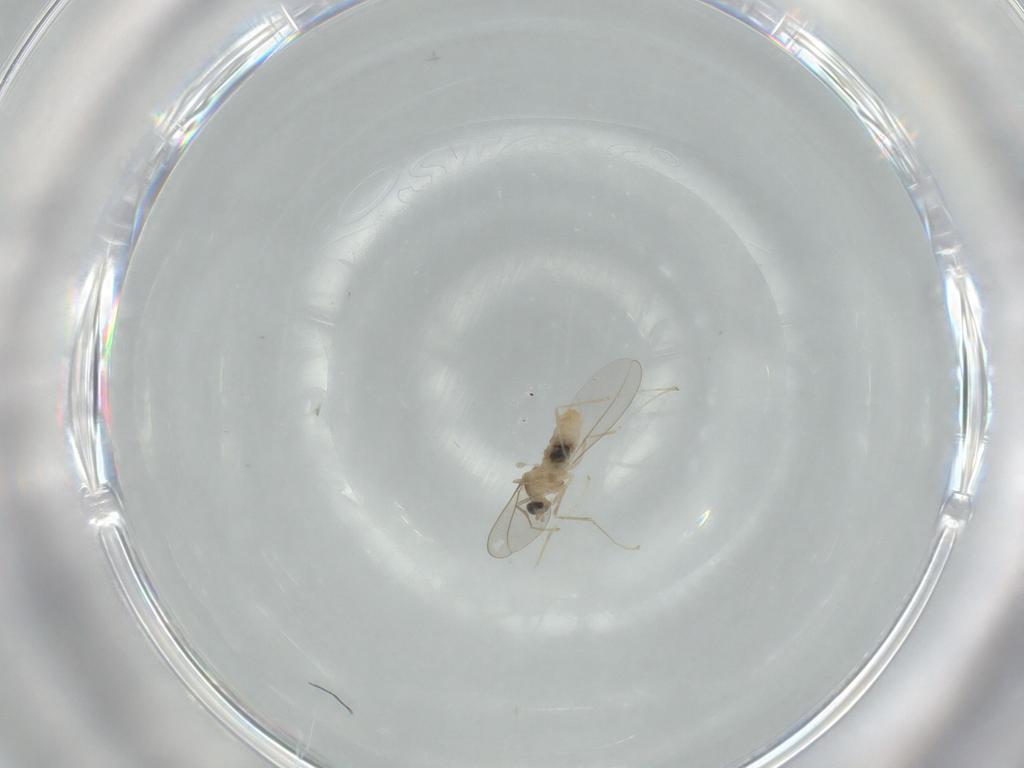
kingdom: Animalia
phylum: Arthropoda
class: Insecta
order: Diptera
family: Cecidomyiidae
